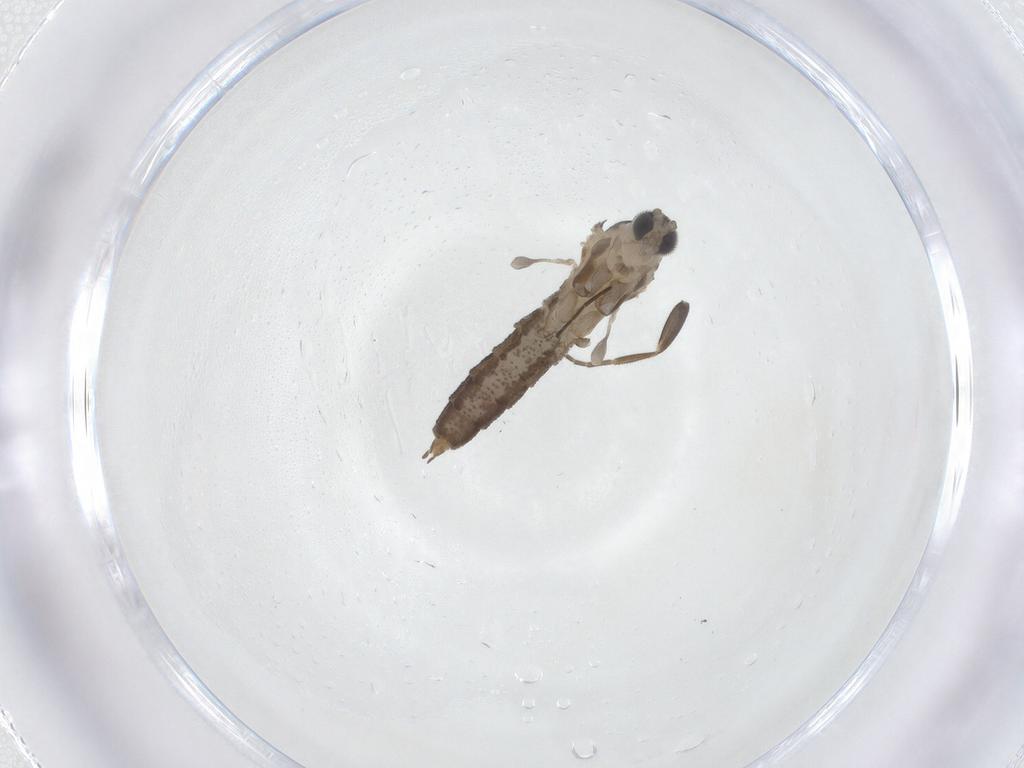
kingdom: Animalia
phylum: Arthropoda
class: Insecta
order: Diptera
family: Cecidomyiidae
